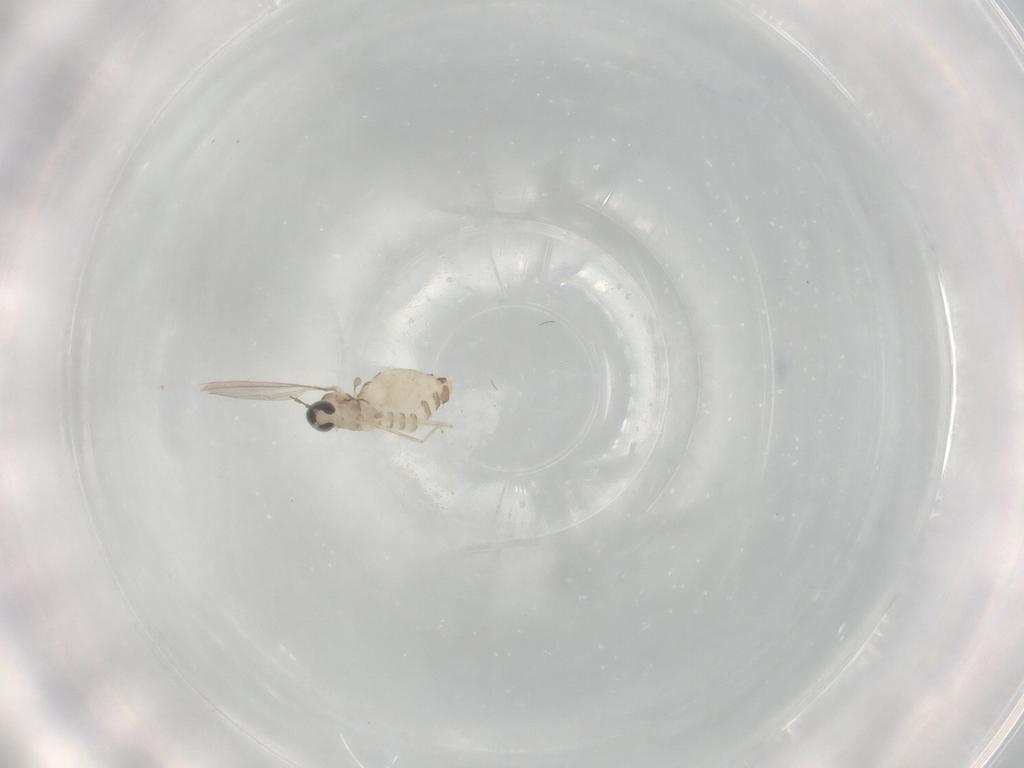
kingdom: Animalia
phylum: Arthropoda
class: Insecta
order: Diptera
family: Cecidomyiidae
